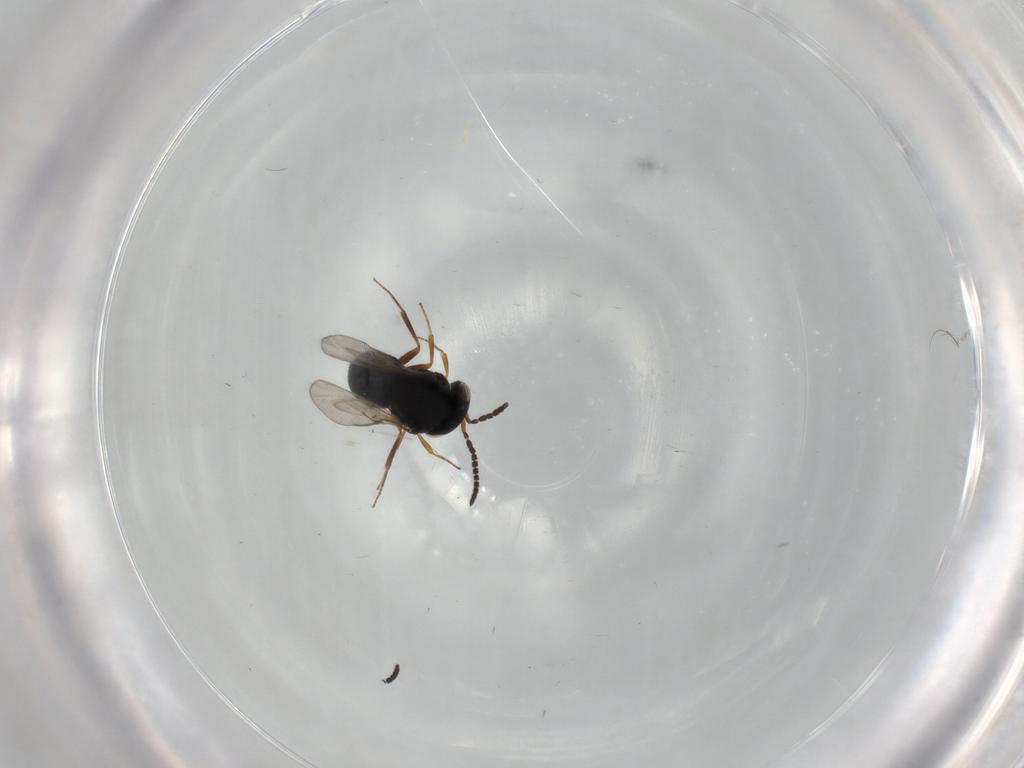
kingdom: Animalia
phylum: Arthropoda
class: Insecta
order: Hymenoptera
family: Scelionidae
